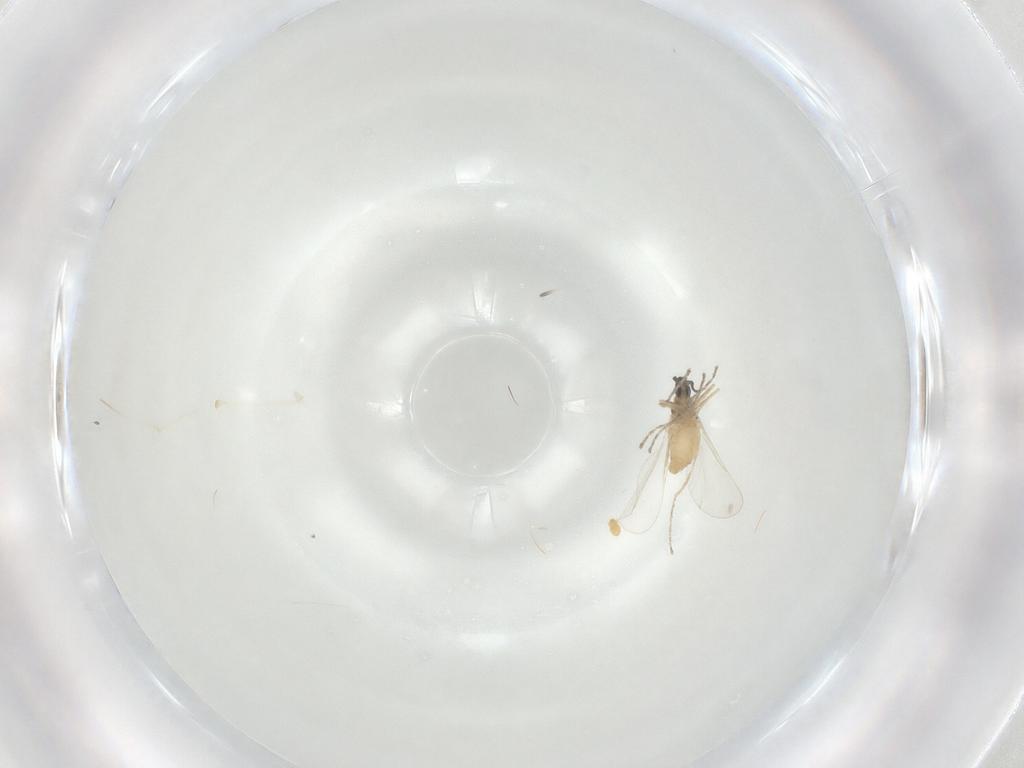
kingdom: Animalia
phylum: Arthropoda
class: Insecta
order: Diptera
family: Cecidomyiidae
